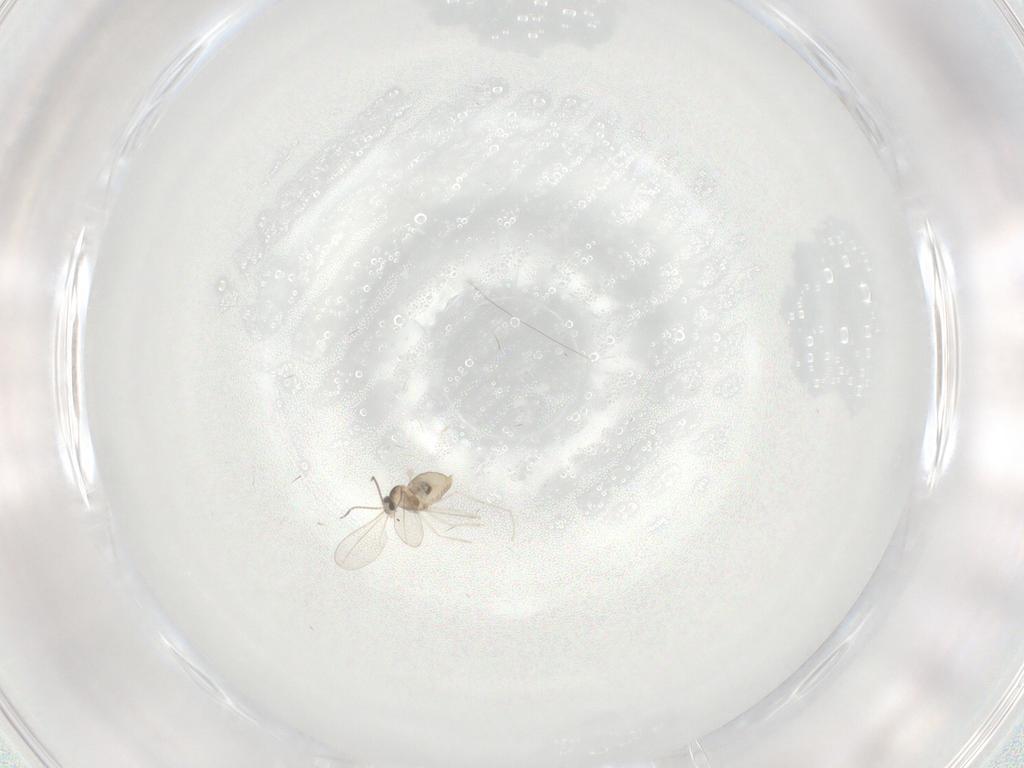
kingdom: Animalia
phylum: Arthropoda
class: Insecta
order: Diptera
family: Cecidomyiidae
